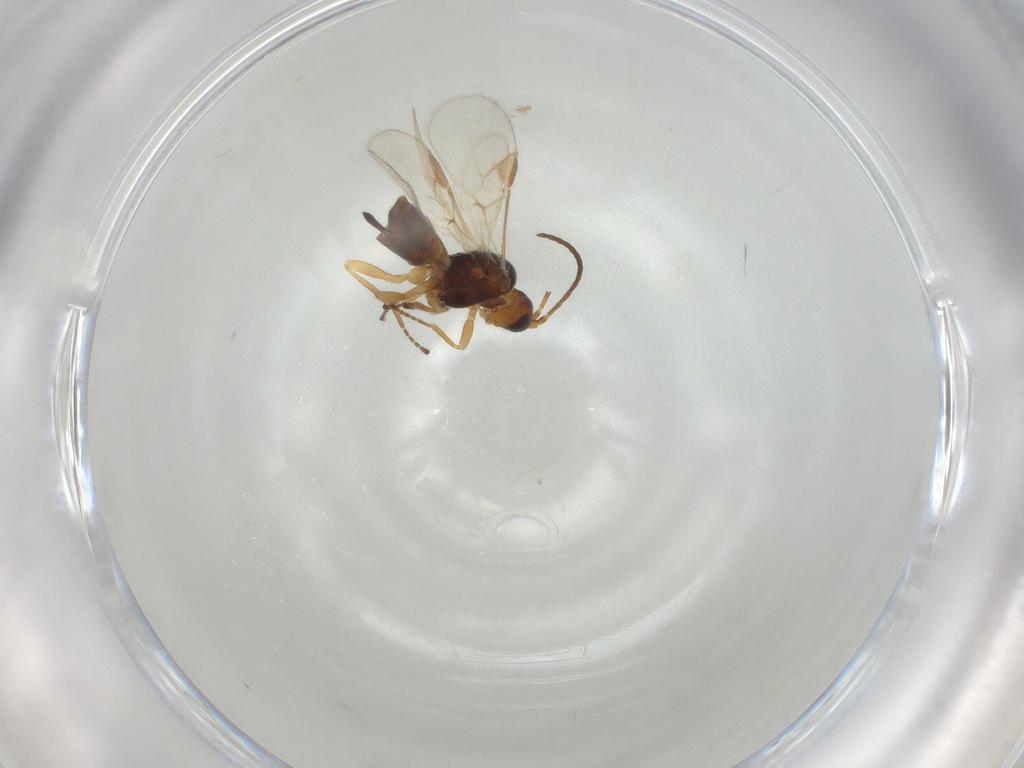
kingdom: Animalia
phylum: Arthropoda
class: Insecta
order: Hymenoptera
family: Braconidae
